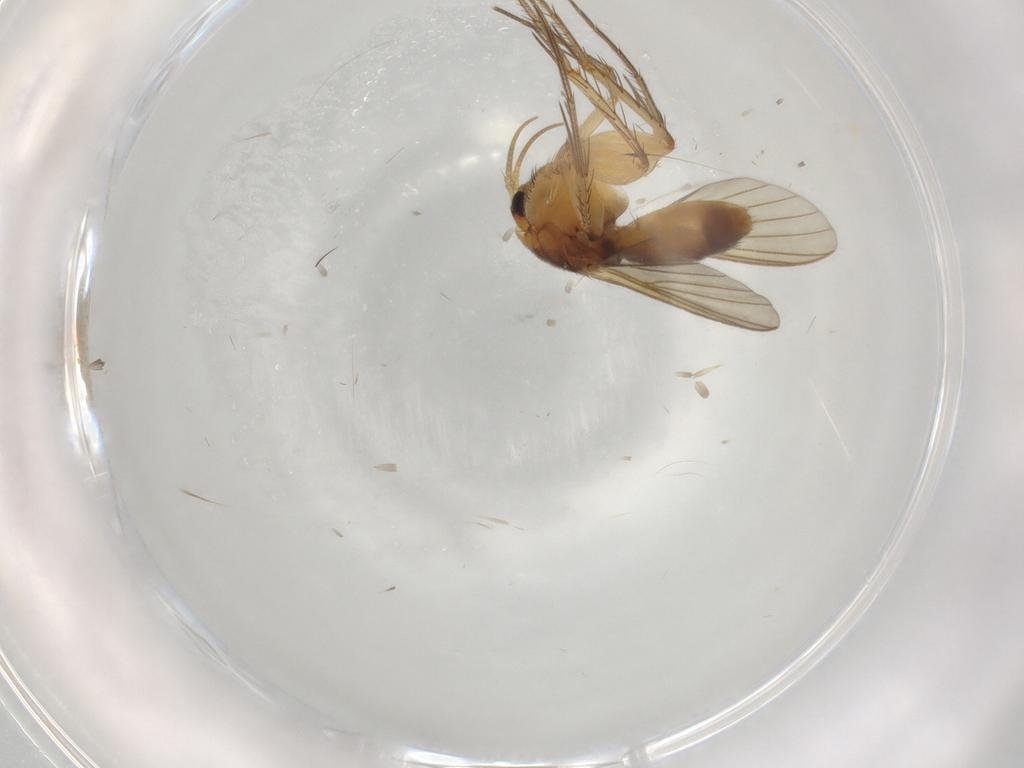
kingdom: Animalia
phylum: Arthropoda
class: Insecta
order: Diptera
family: Mycetophilidae
